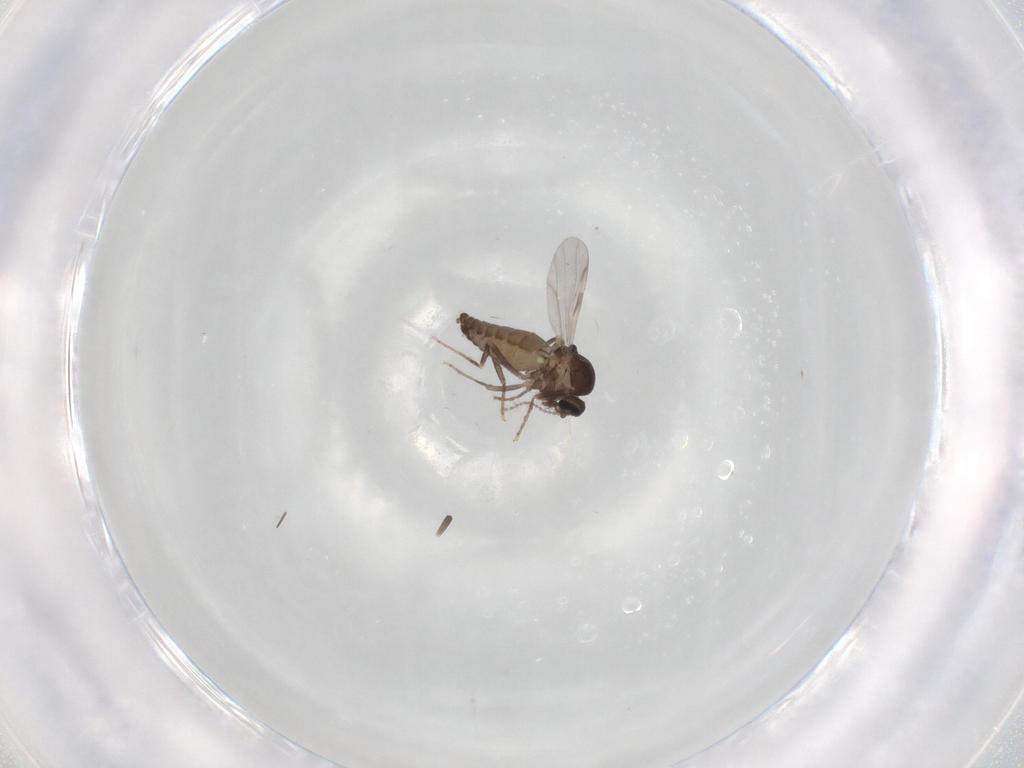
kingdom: Animalia
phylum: Arthropoda
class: Insecta
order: Diptera
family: Ceratopogonidae
